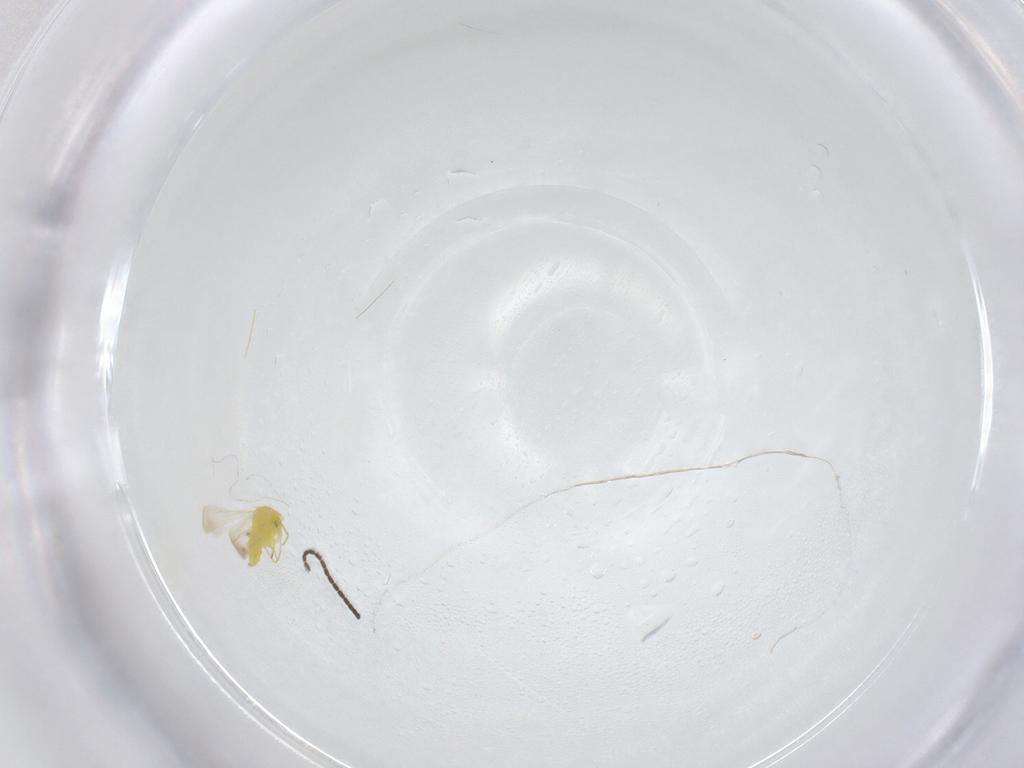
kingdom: Animalia
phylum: Arthropoda
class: Insecta
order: Hemiptera
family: Aleyrodidae
